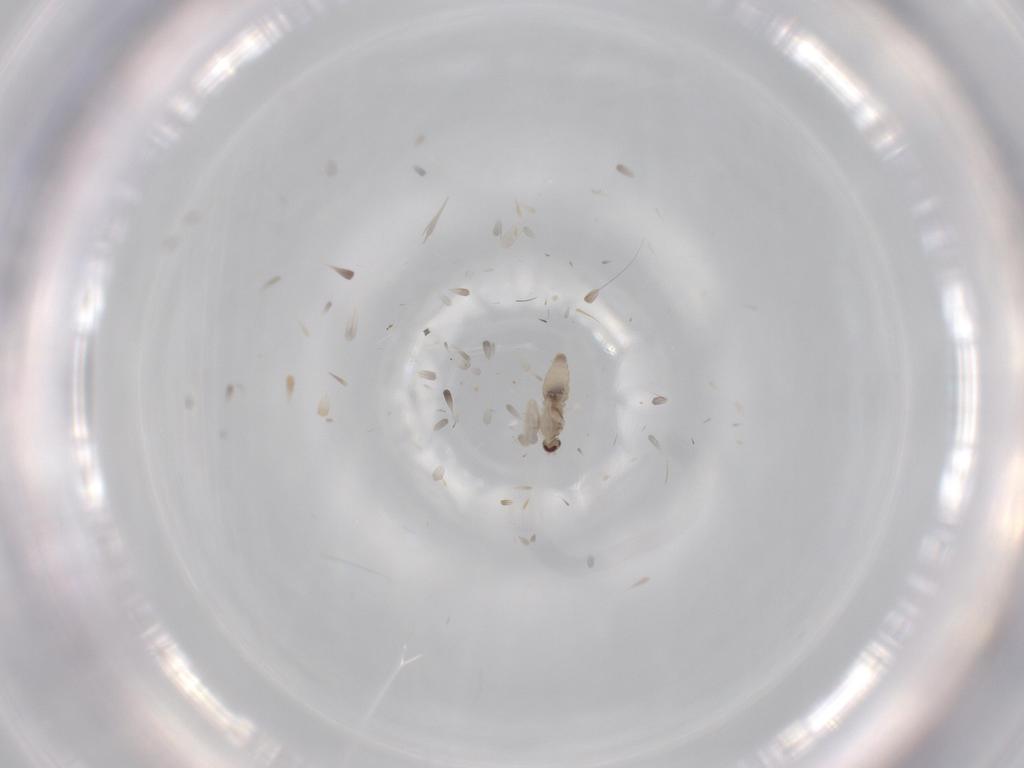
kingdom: Animalia
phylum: Arthropoda
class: Insecta
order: Diptera
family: Cecidomyiidae
